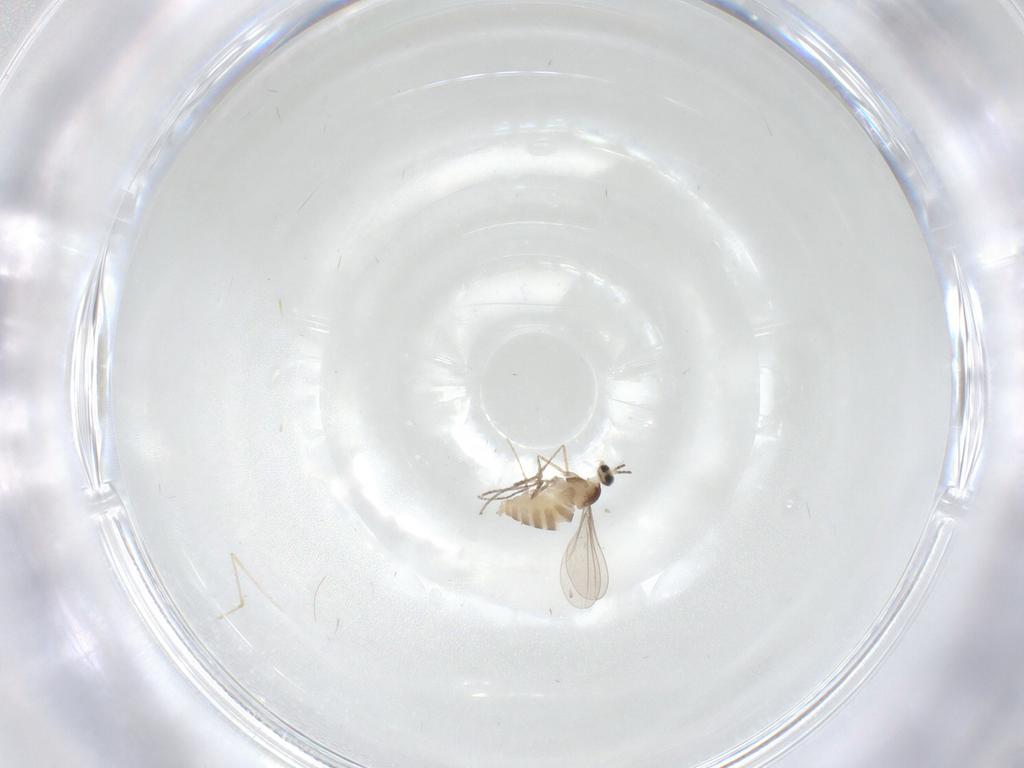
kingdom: Animalia
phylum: Arthropoda
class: Insecta
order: Diptera
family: Cecidomyiidae
